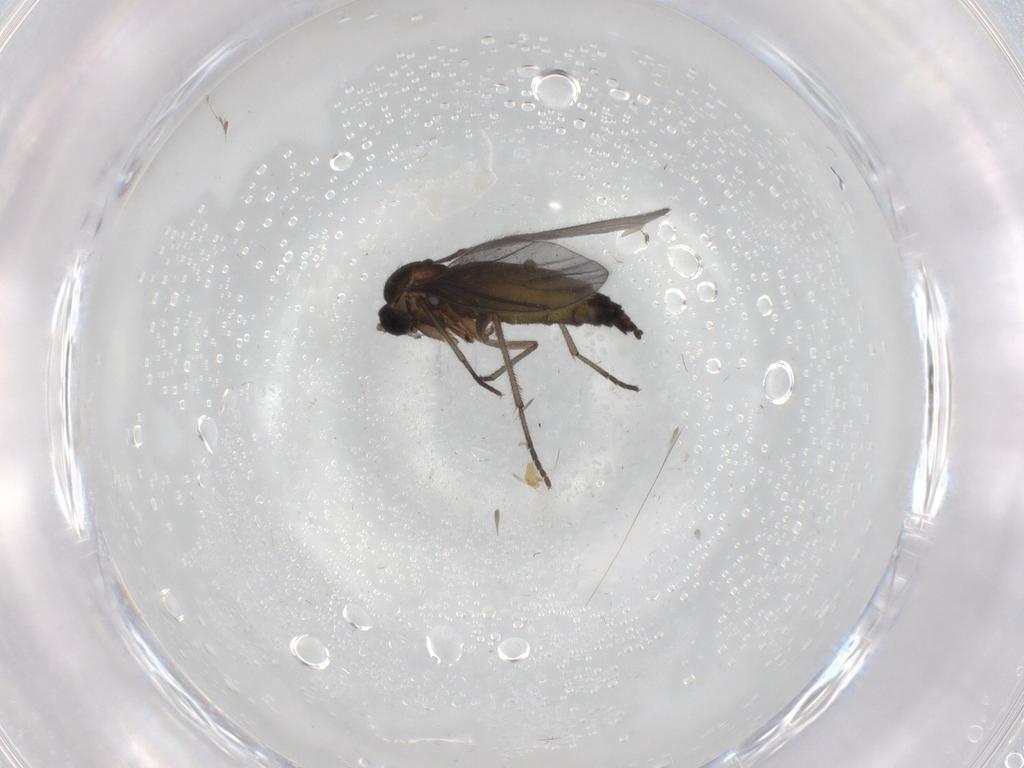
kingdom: Animalia
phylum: Arthropoda
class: Insecta
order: Diptera
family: Sciaridae
